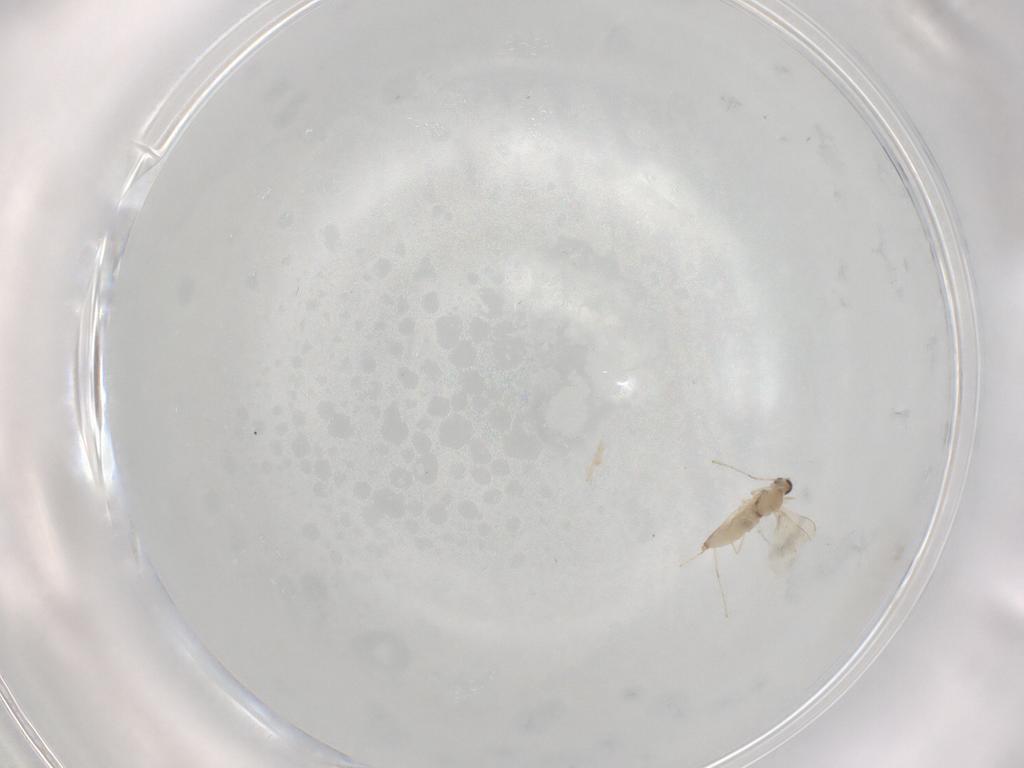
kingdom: Animalia
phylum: Arthropoda
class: Insecta
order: Diptera
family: Cecidomyiidae
